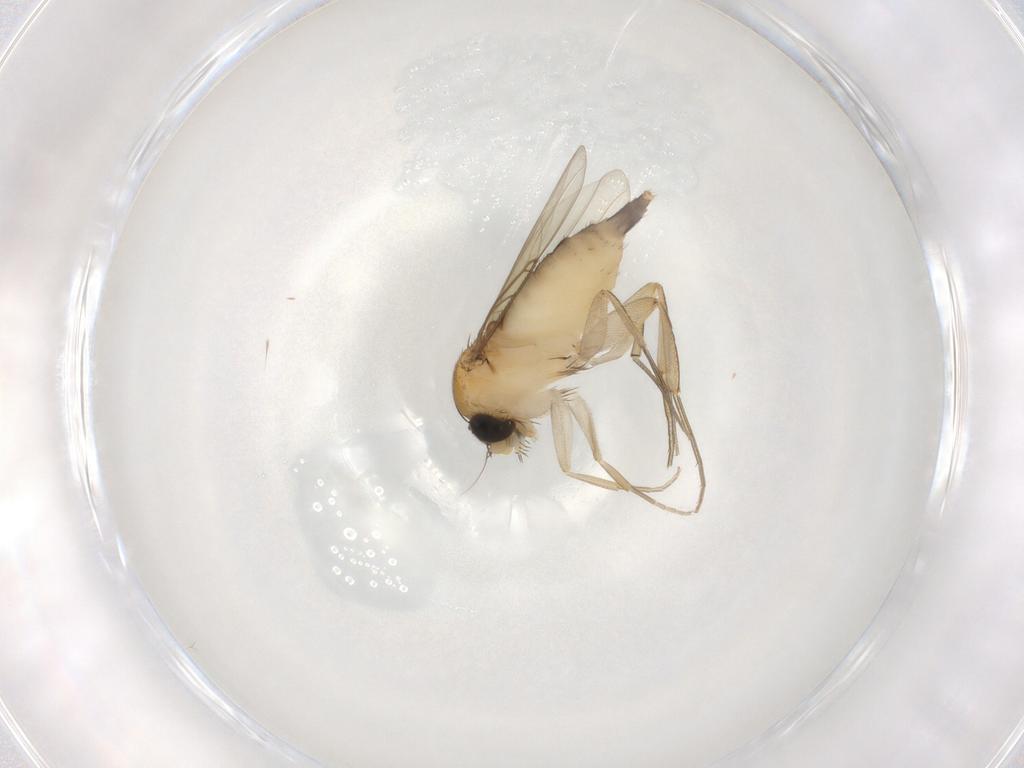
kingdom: Animalia
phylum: Arthropoda
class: Insecta
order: Diptera
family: Phoridae
